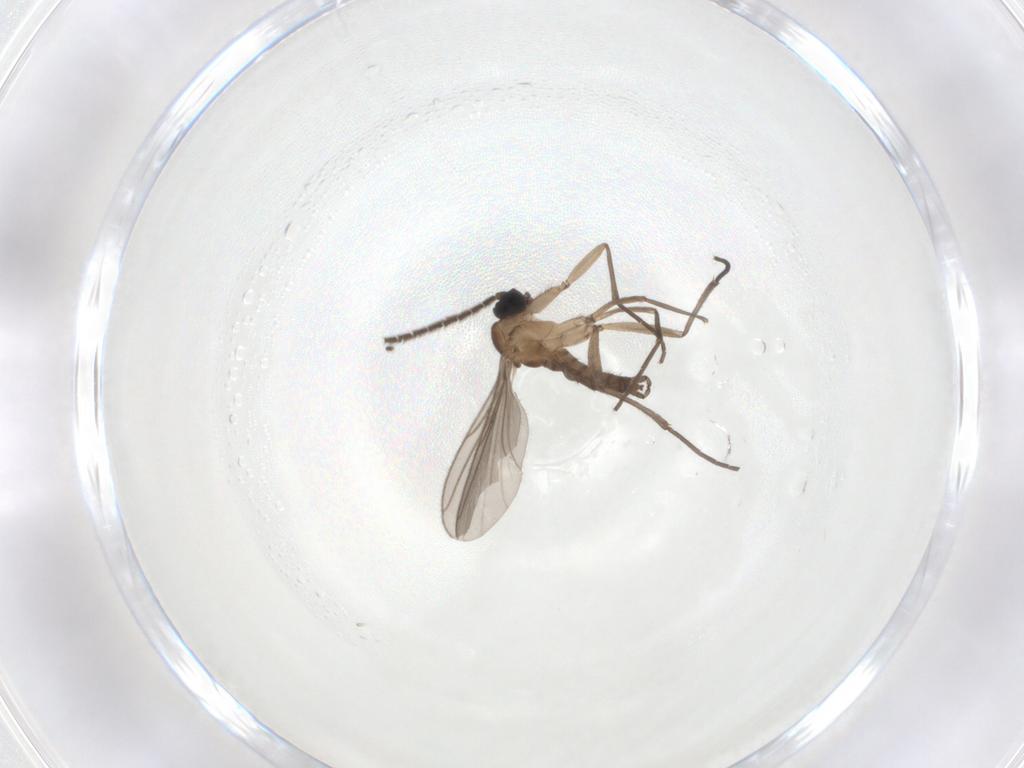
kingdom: Animalia
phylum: Arthropoda
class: Insecta
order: Diptera
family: Sciaridae
